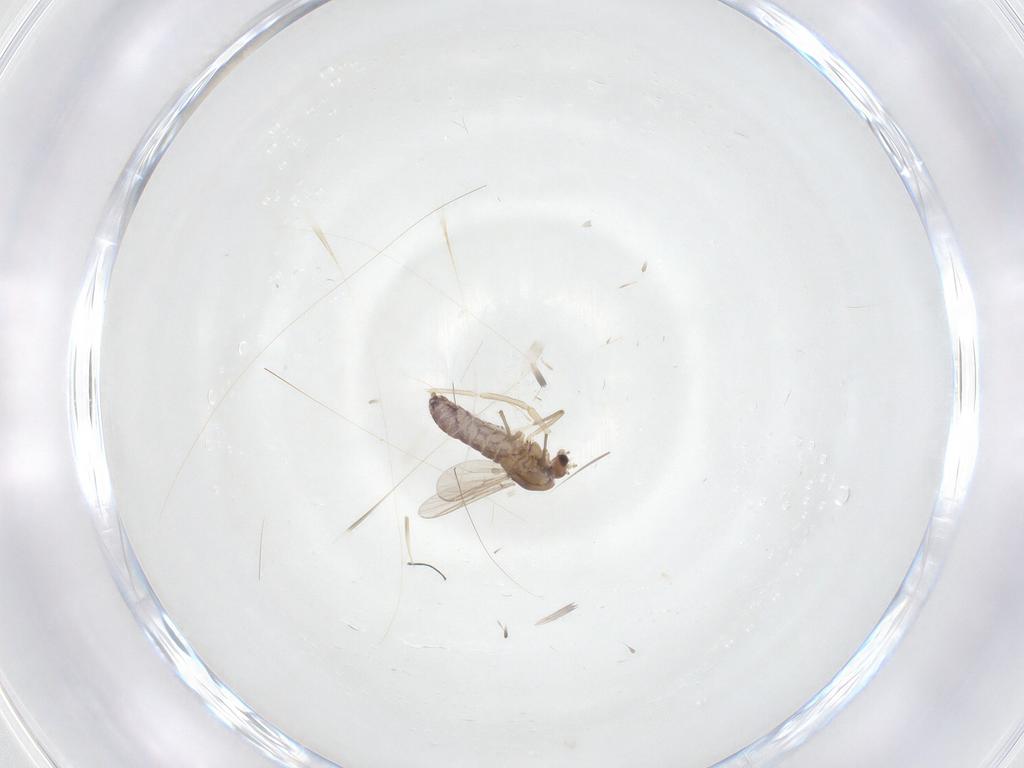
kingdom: Animalia
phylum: Arthropoda
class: Insecta
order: Diptera
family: Chironomidae
